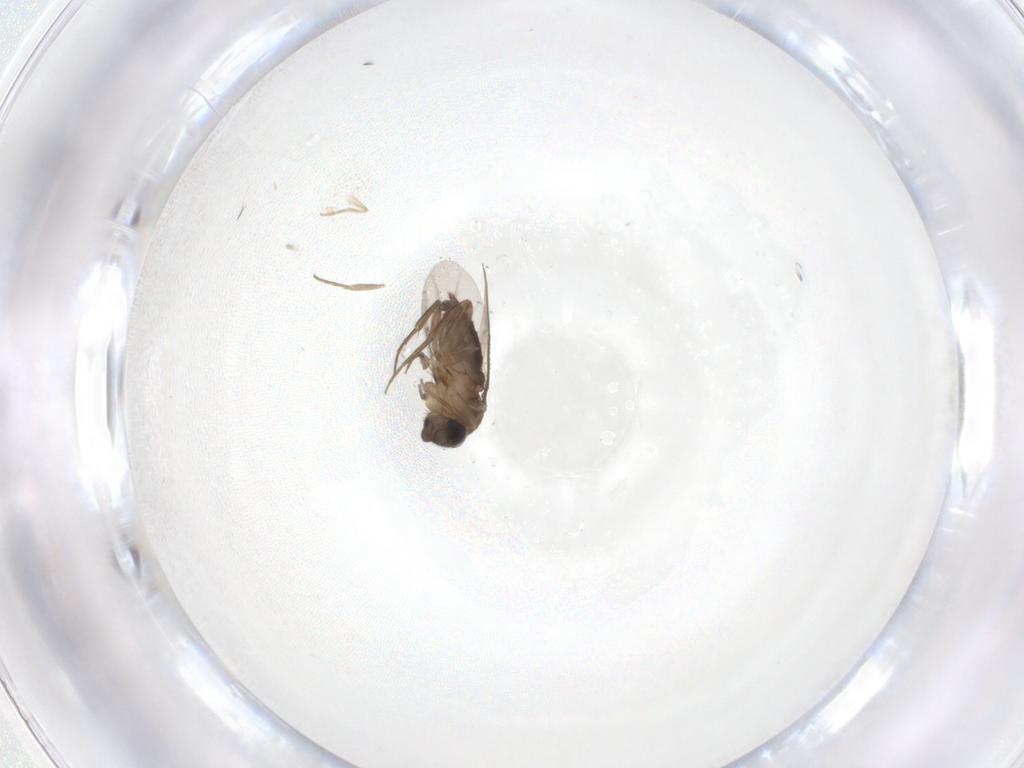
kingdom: Animalia
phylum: Arthropoda
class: Insecta
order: Diptera
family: Phoridae
